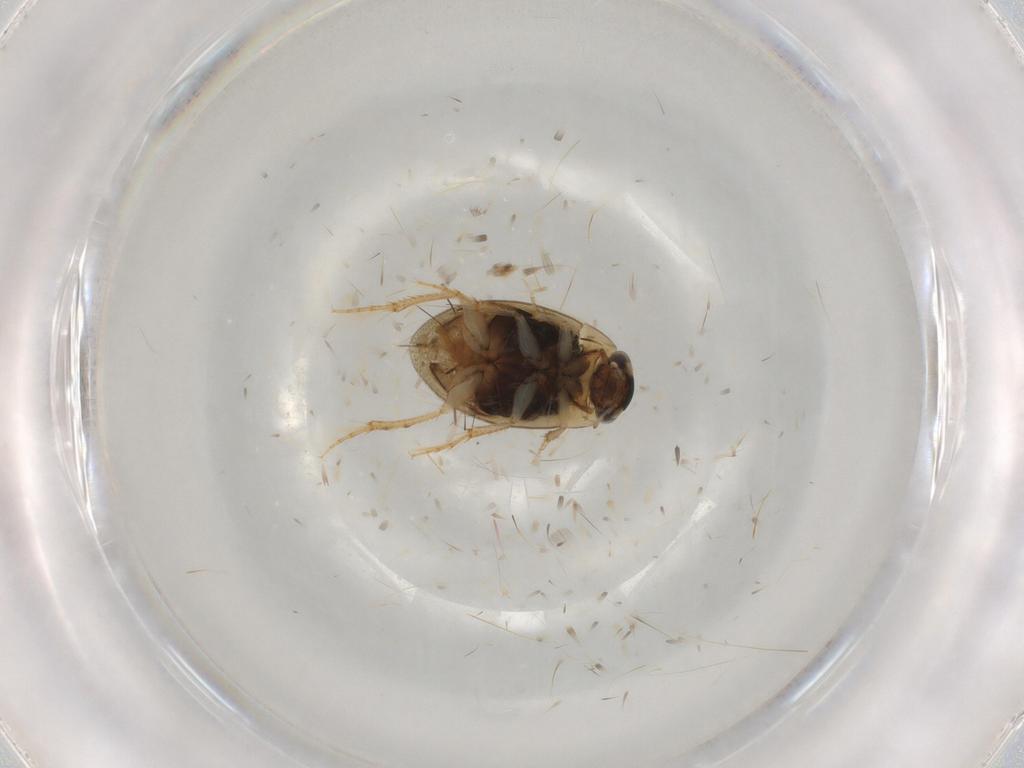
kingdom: Animalia
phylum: Arthropoda
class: Insecta
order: Coleoptera
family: Hydrophilidae
